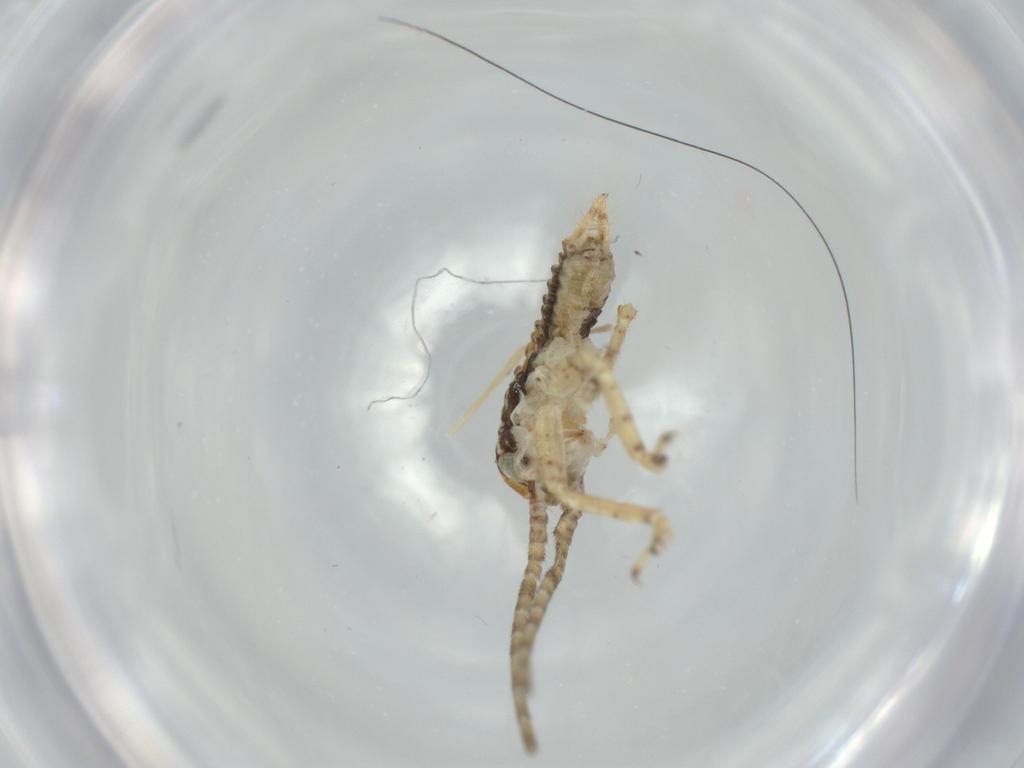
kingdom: Animalia
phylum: Arthropoda
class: Insecta
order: Orthoptera
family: Gryllidae
